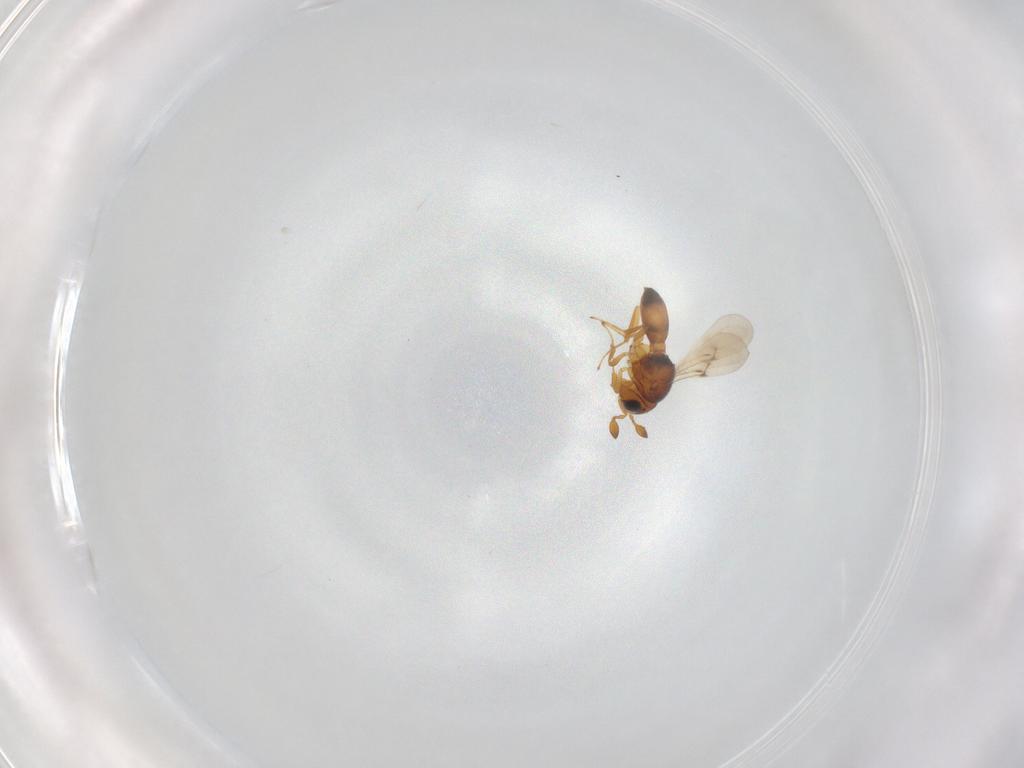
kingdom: Animalia
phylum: Arthropoda
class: Insecta
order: Hymenoptera
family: Scelionidae
